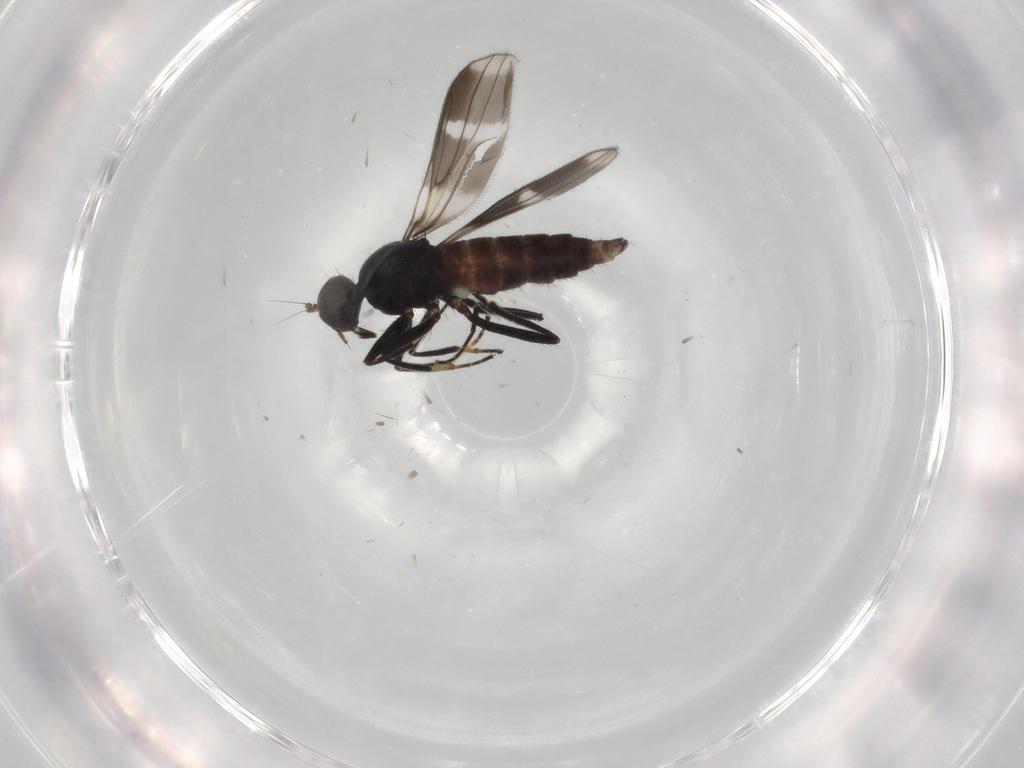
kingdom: Animalia
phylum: Arthropoda
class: Insecta
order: Diptera
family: Hybotidae
